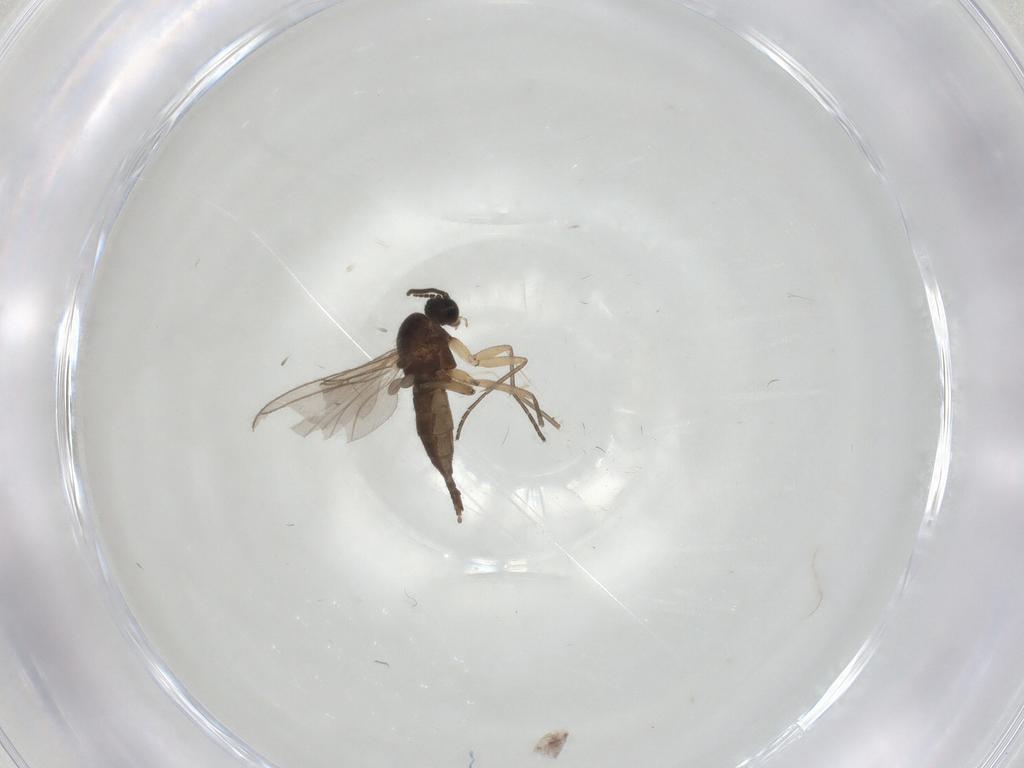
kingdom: Animalia
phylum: Arthropoda
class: Insecta
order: Diptera
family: Sciaridae
